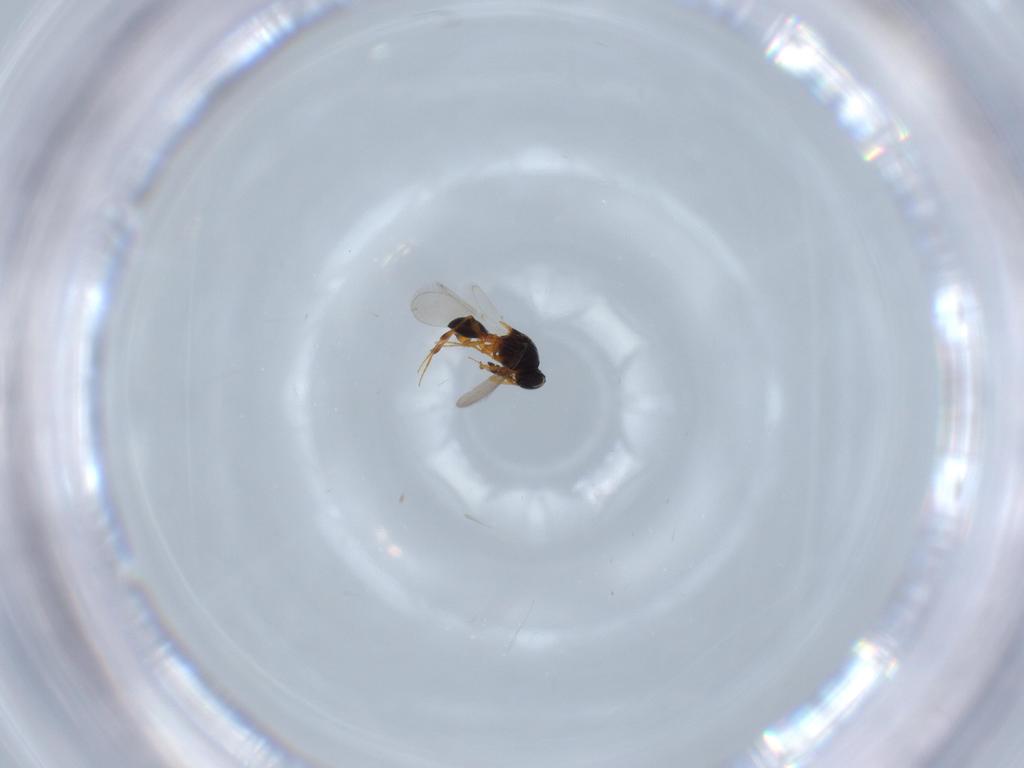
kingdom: Animalia
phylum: Arthropoda
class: Insecta
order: Hymenoptera
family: Platygastridae
